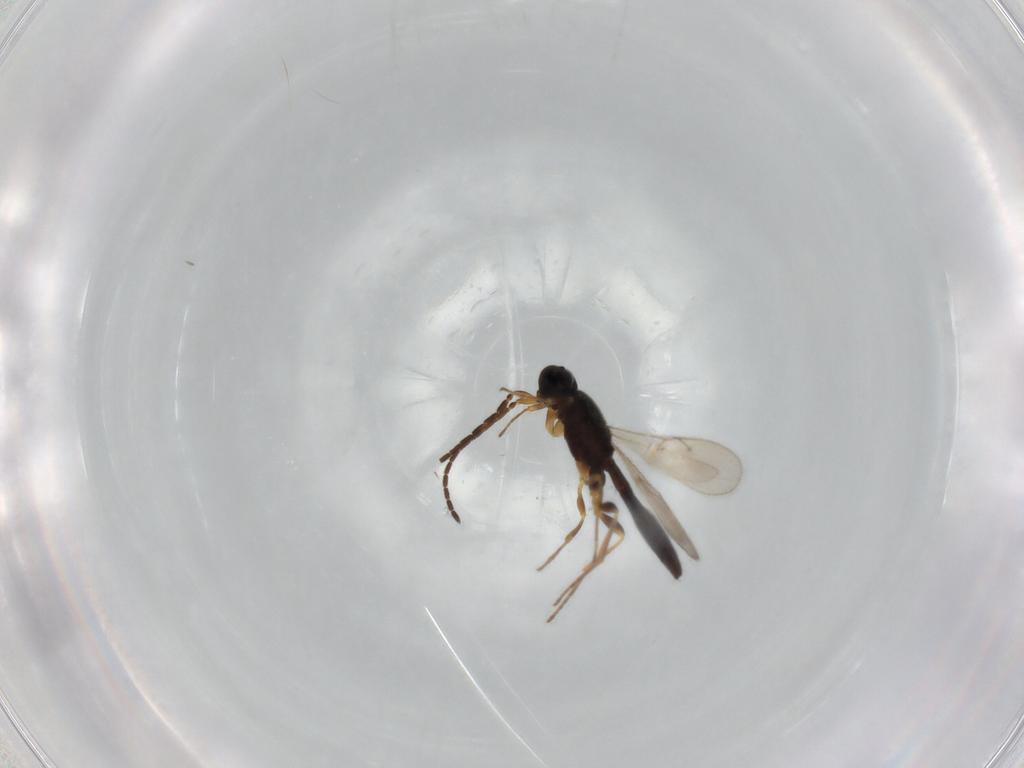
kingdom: Animalia
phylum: Arthropoda
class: Insecta
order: Hymenoptera
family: Scelionidae
